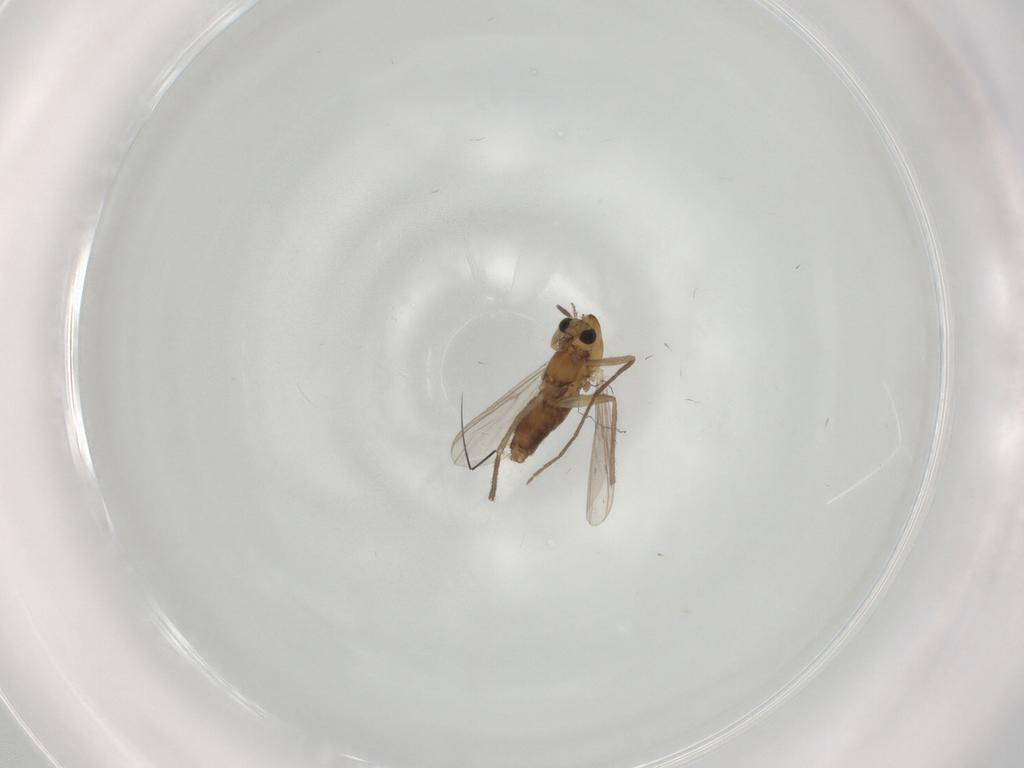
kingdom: Animalia
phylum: Arthropoda
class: Insecta
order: Diptera
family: Chironomidae
